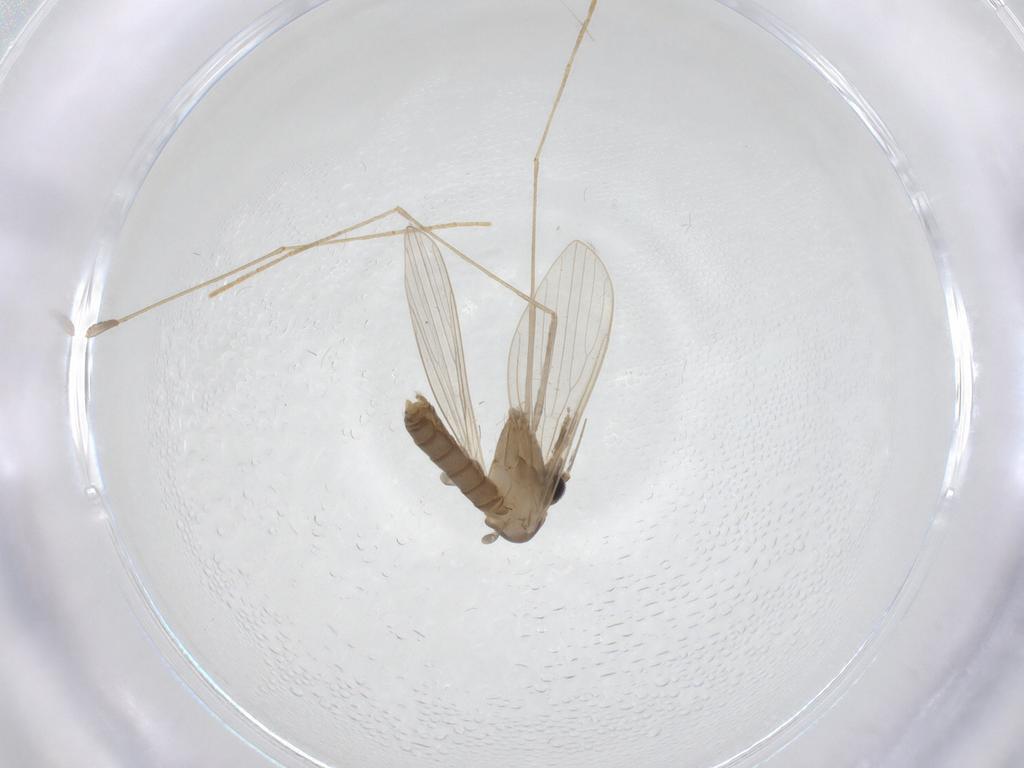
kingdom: Animalia
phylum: Arthropoda
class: Insecta
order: Diptera
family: Psychodidae
